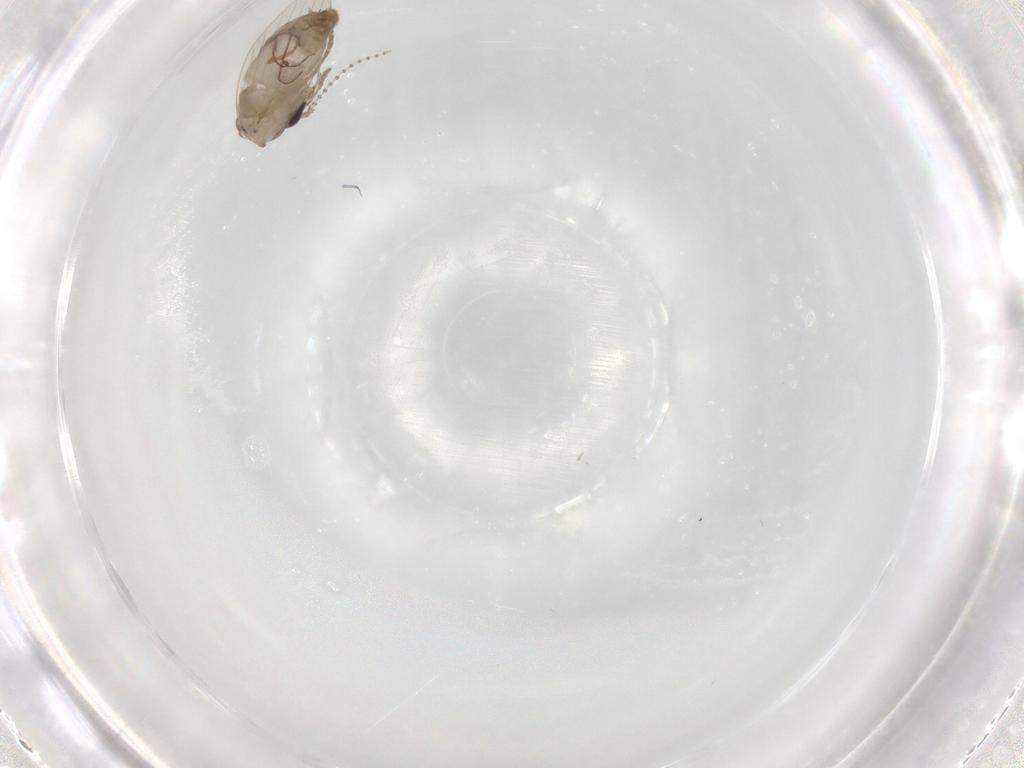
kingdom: Animalia
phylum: Arthropoda
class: Insecta
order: Diptera
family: Psychodidae
